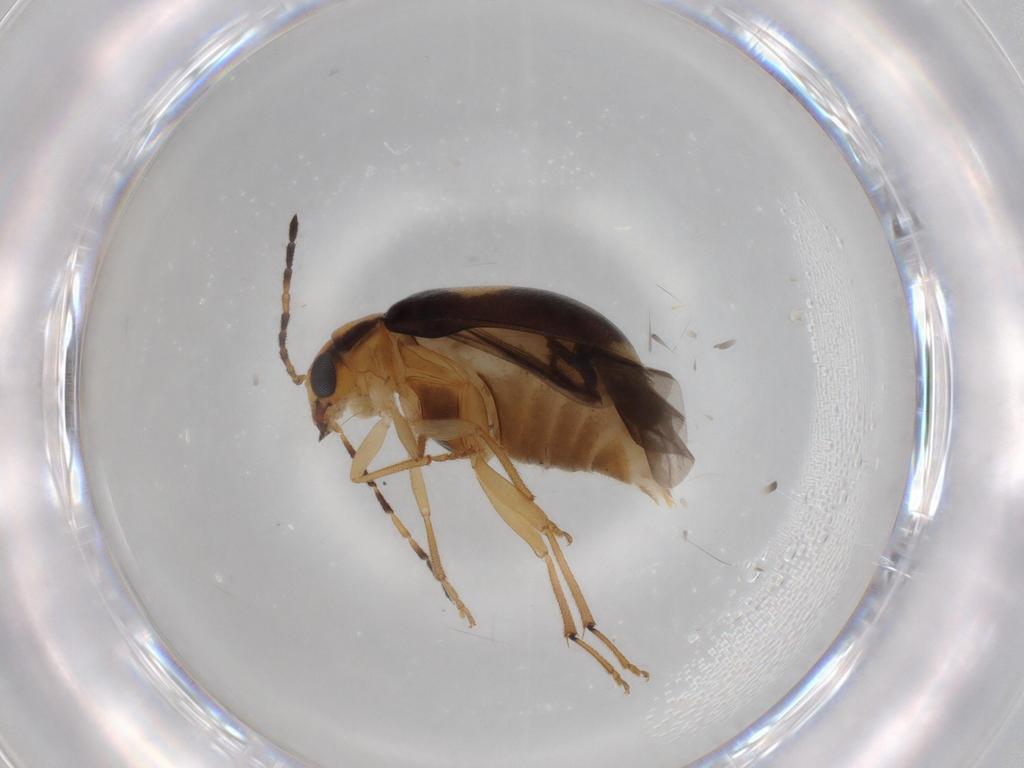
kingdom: Animalia
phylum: Arthropoda
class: Insecta
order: Coleoptera
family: Chrysomelidae
